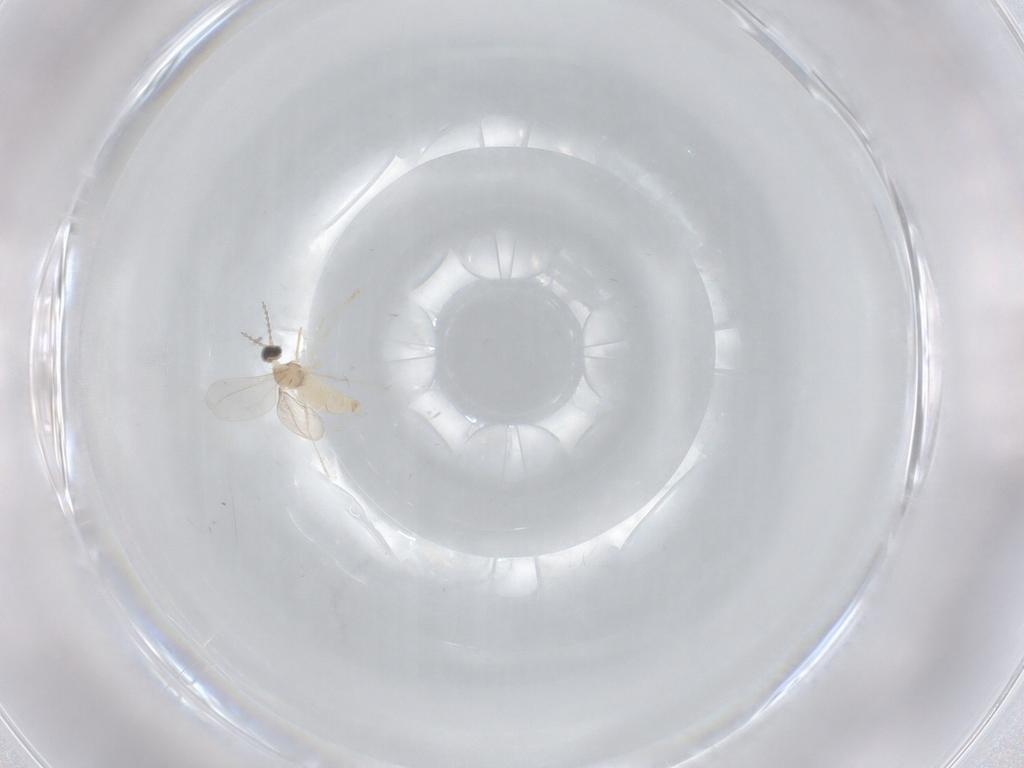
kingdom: Animalia
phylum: Arthropoda
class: Insecta
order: Diptera
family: Cecidomyiidae
